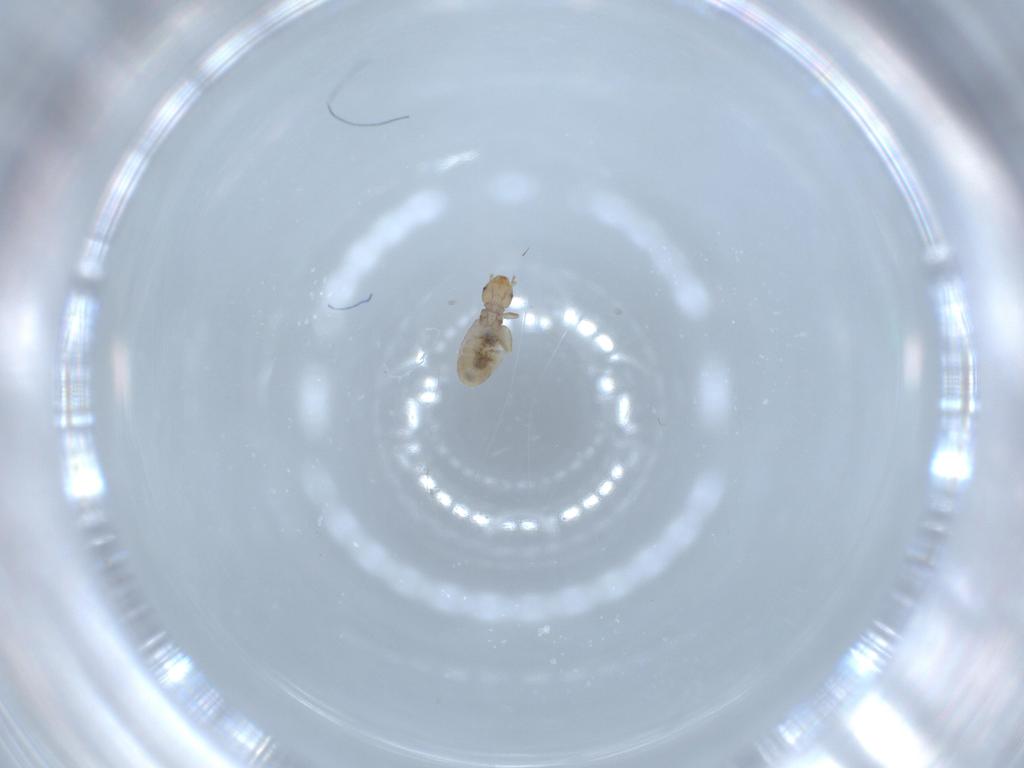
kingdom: Animalia
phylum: Arthropoda
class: Insecta
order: Psocodea
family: Liposcelididae
